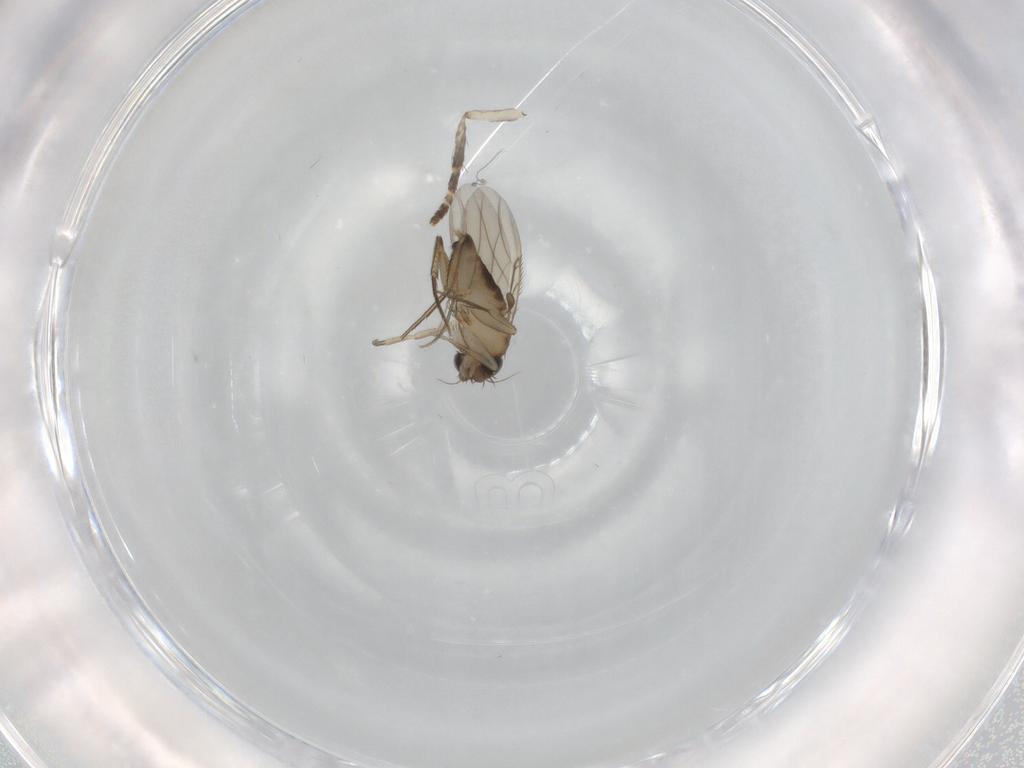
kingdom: Animalia
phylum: Arthropoda
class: Insecta
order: Diptera
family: Phoridae
